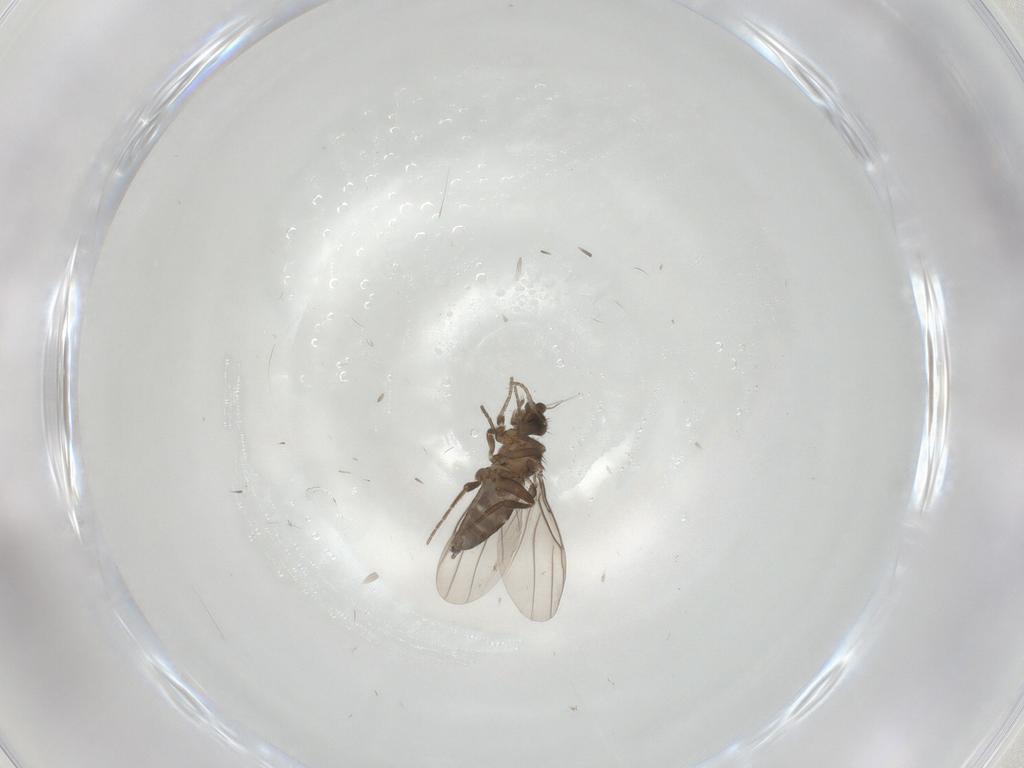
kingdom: Animalia
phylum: Arthropoda
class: Insecta
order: Diptera
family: Phoridae
